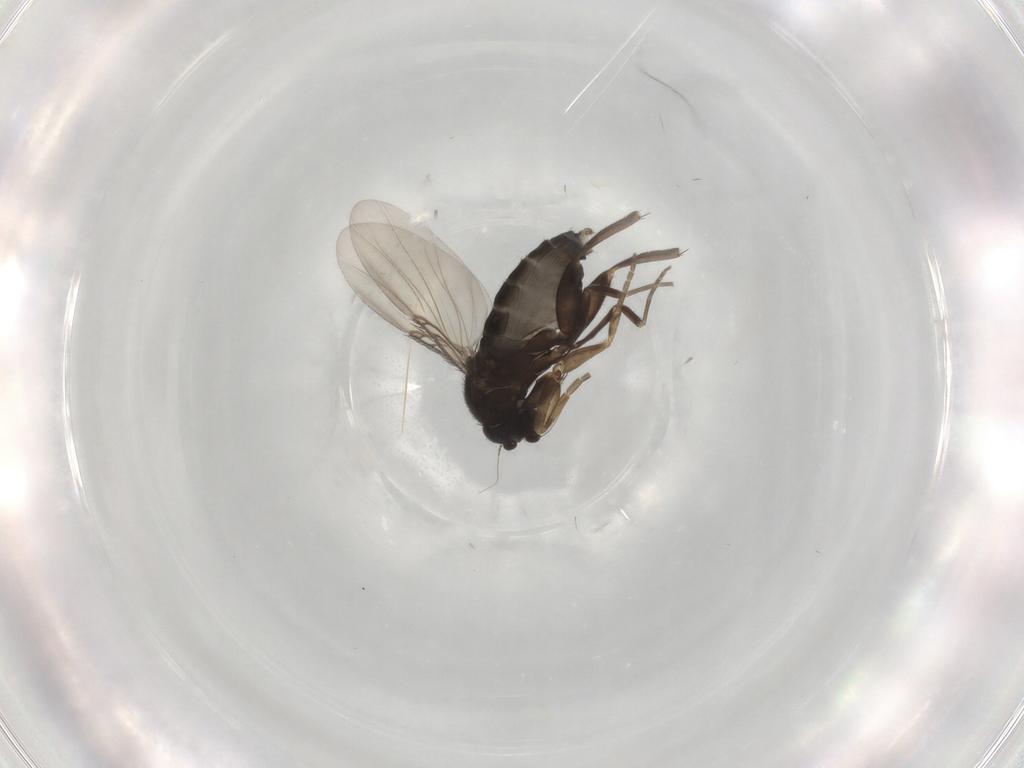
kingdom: Animalia
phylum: Arthropoda
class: Insecta
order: Diptera
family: Phoridae
